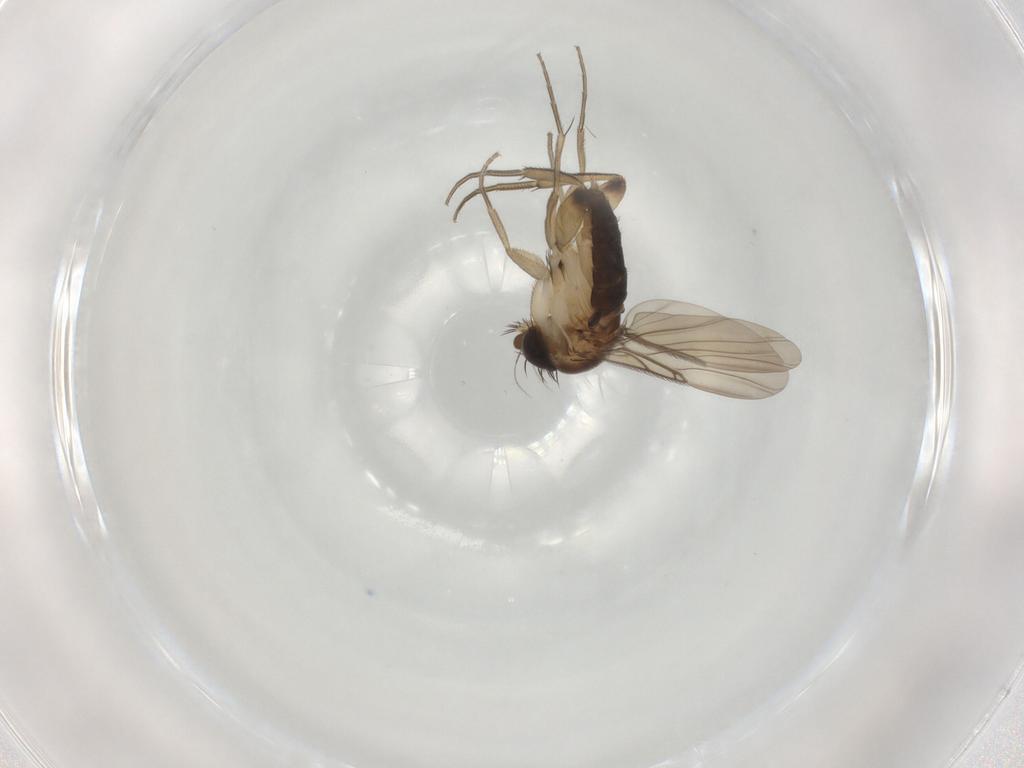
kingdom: Animalia
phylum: Arthropoda
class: Insecta
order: Diptera
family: Phoridae
